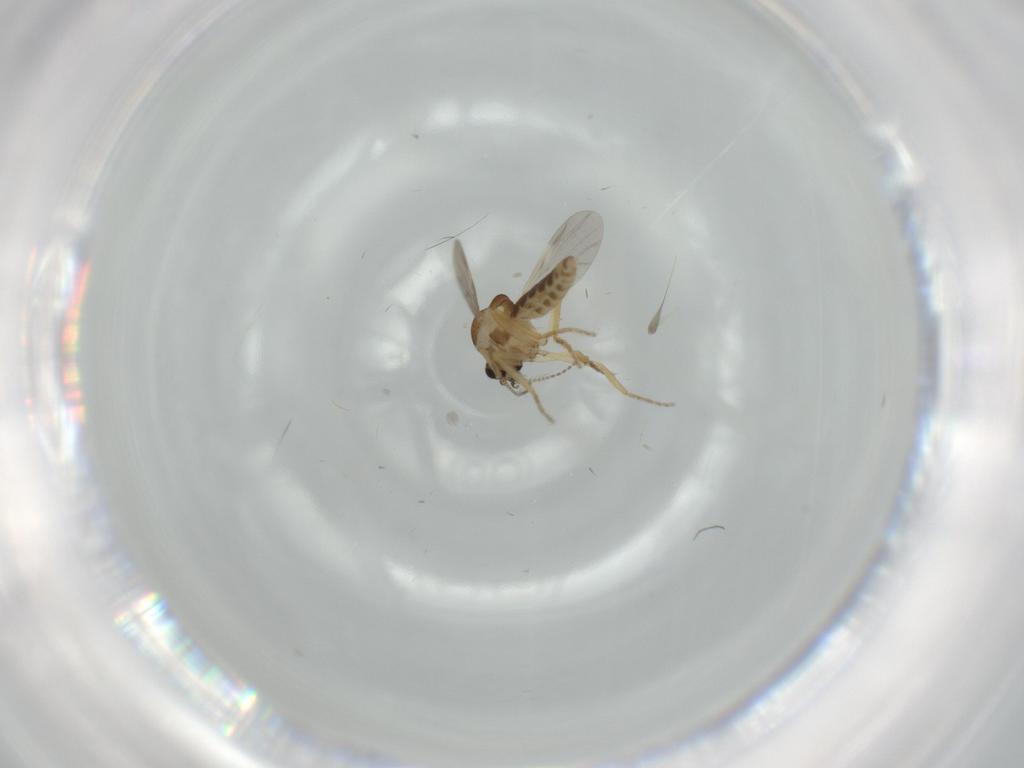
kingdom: Animalia
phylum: Arthropoda
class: Insecta
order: Diptera
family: Ceratopogonidae
